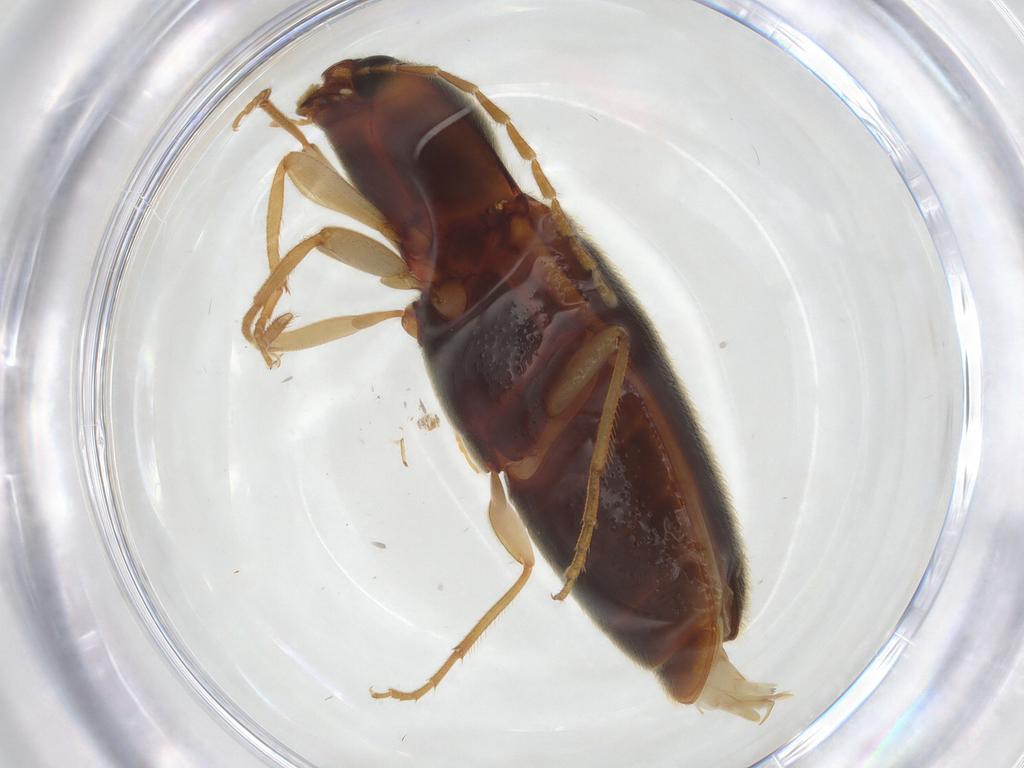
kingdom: Animalia
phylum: Arthropoda
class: Insecta
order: Coleoptera
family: Elateridae
